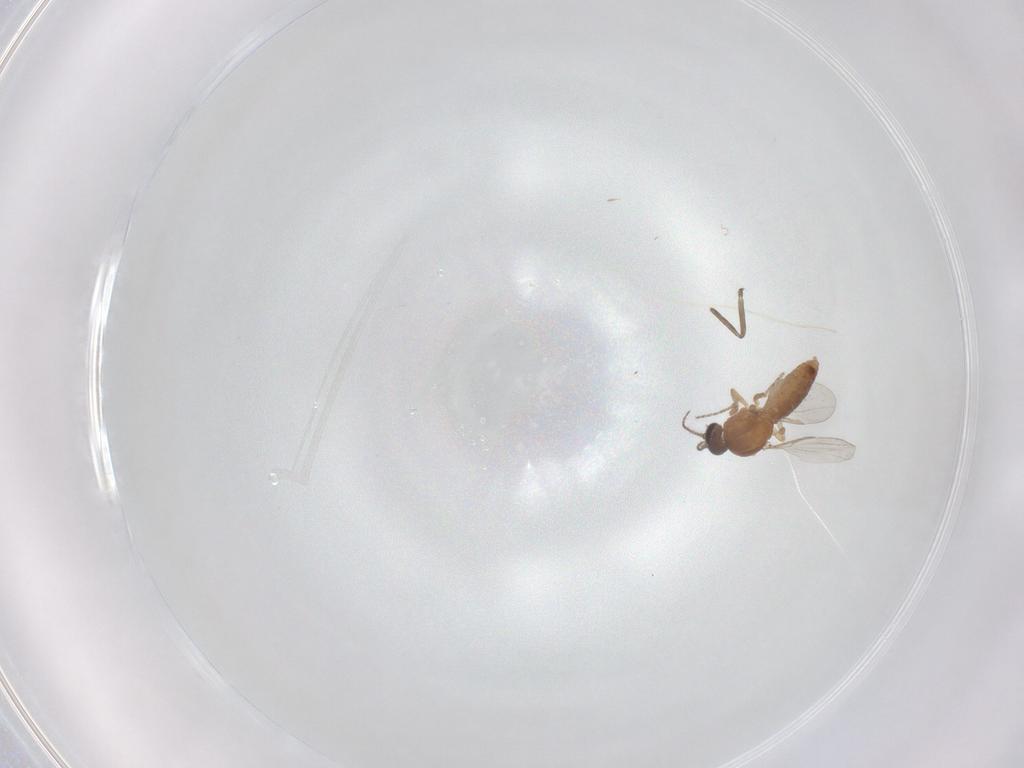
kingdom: Animalia
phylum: Arthropoda
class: Insecta
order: Diptera
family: Ceratopogonidae
